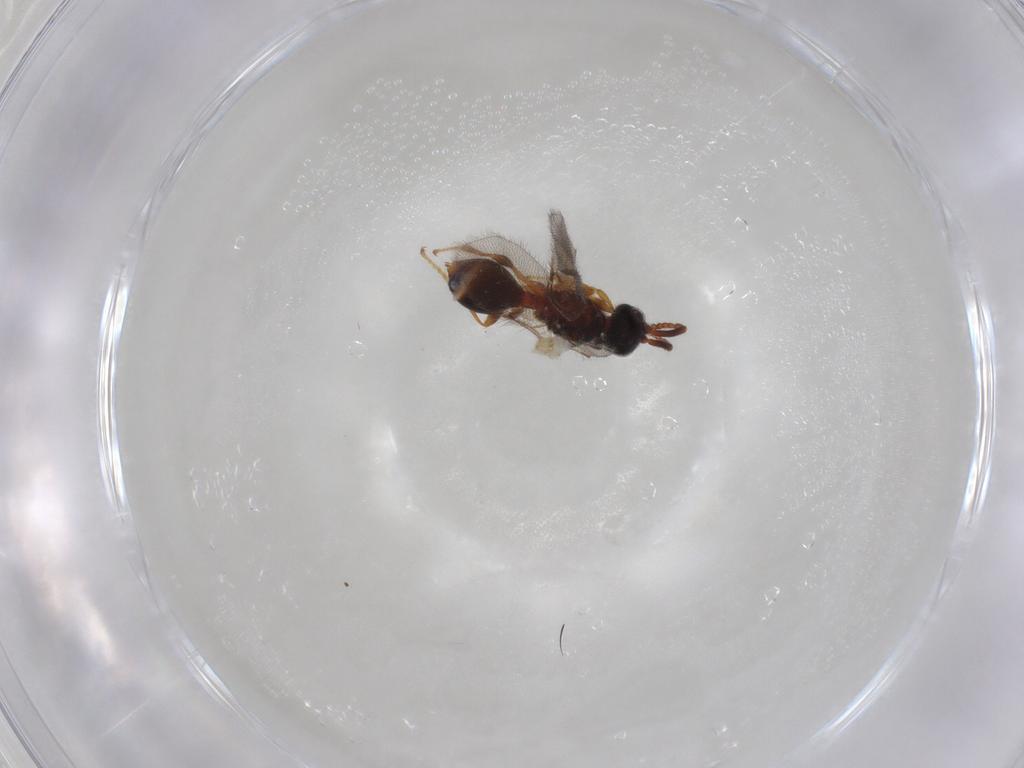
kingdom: Animalia
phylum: Arthropoda
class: Insecta
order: Hymenoptera
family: Diapriidae
